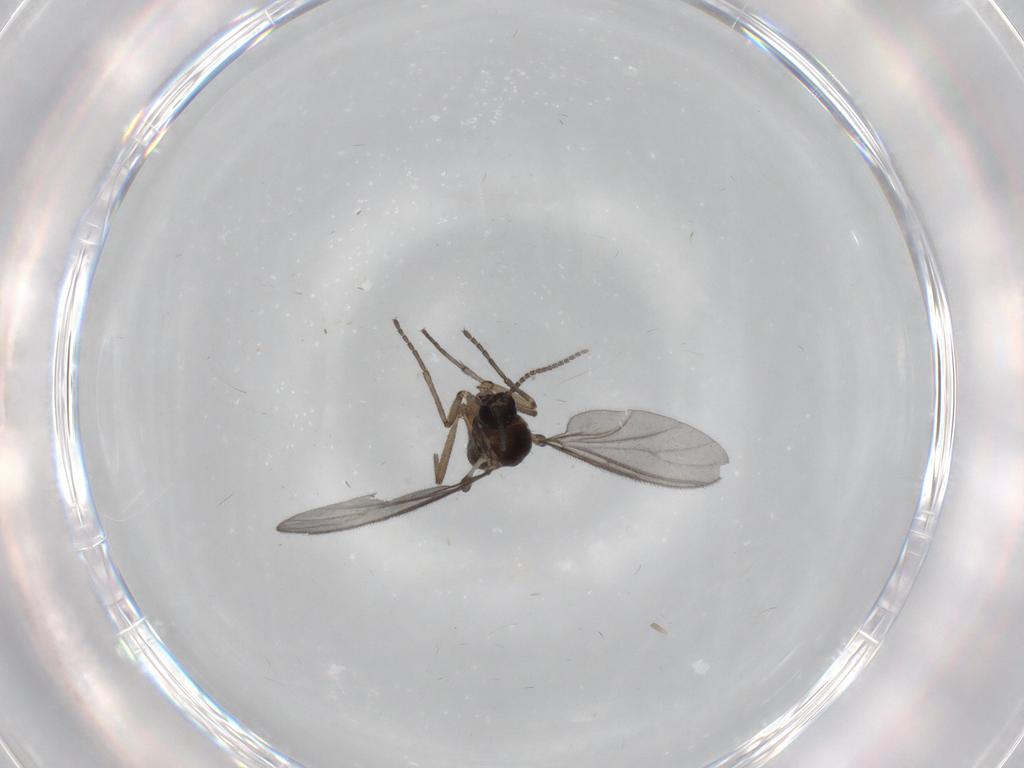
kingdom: Animalia
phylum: Arthropoda
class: Insecta
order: Diptera
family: Sciaridae
